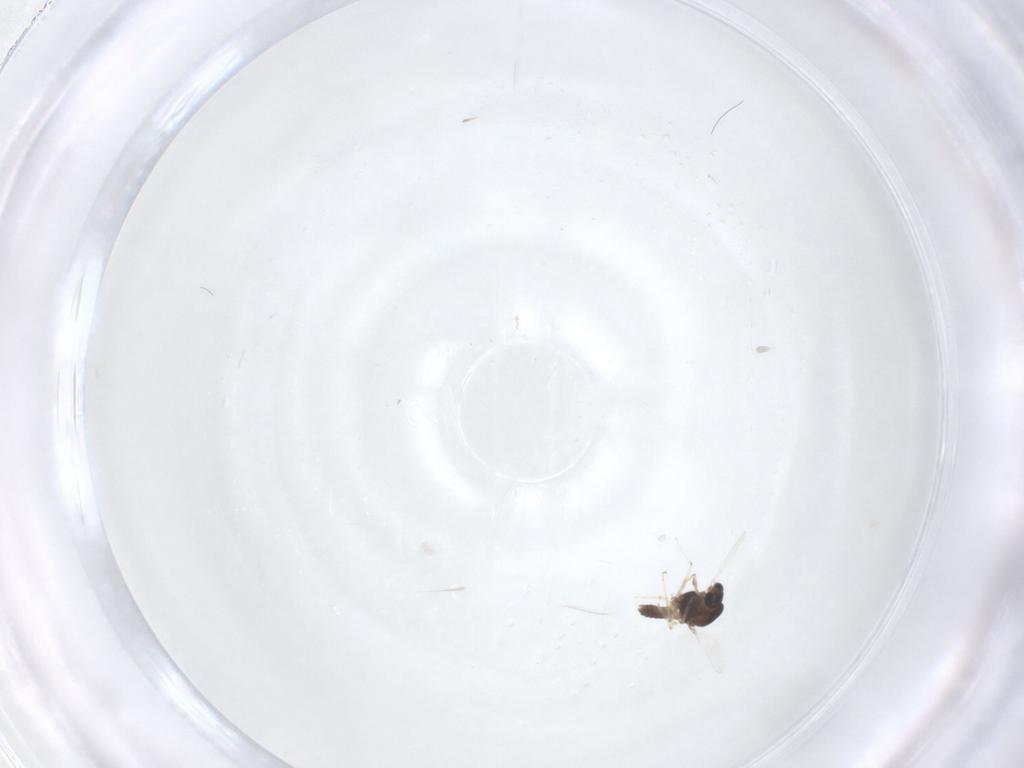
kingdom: Animalia
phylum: Arthropoda
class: Insecta
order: Diptera
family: Chironomidae
